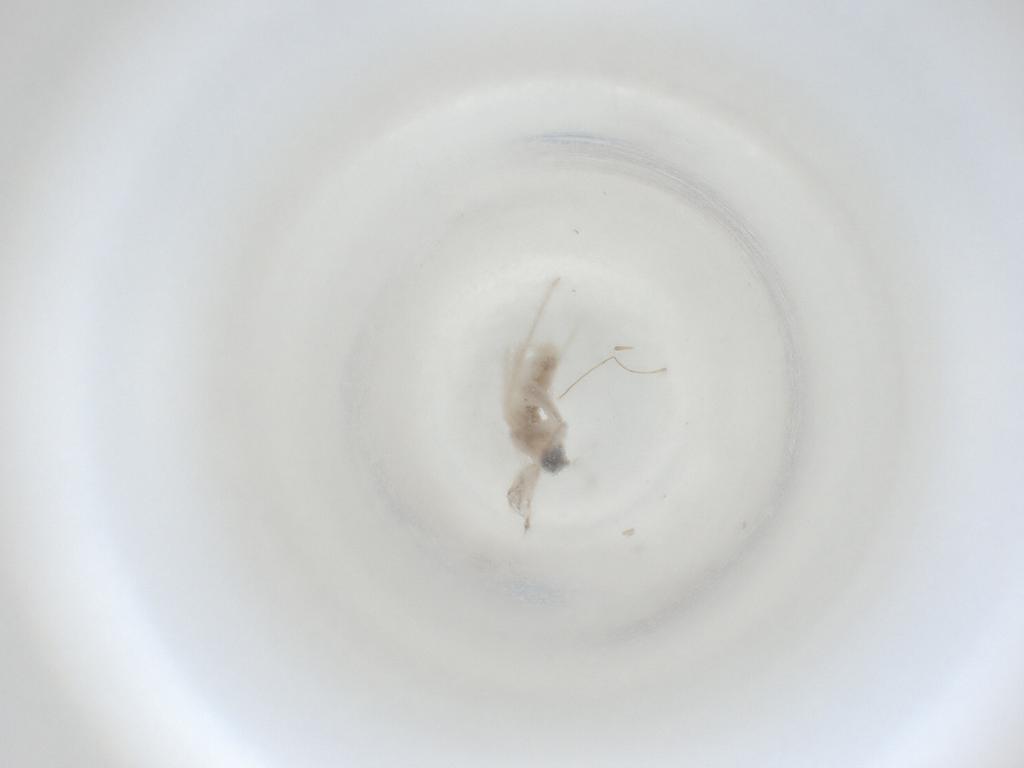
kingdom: Animalia
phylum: Arthropoda
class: Insecta
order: Diptera
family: Cecidomyiidae
